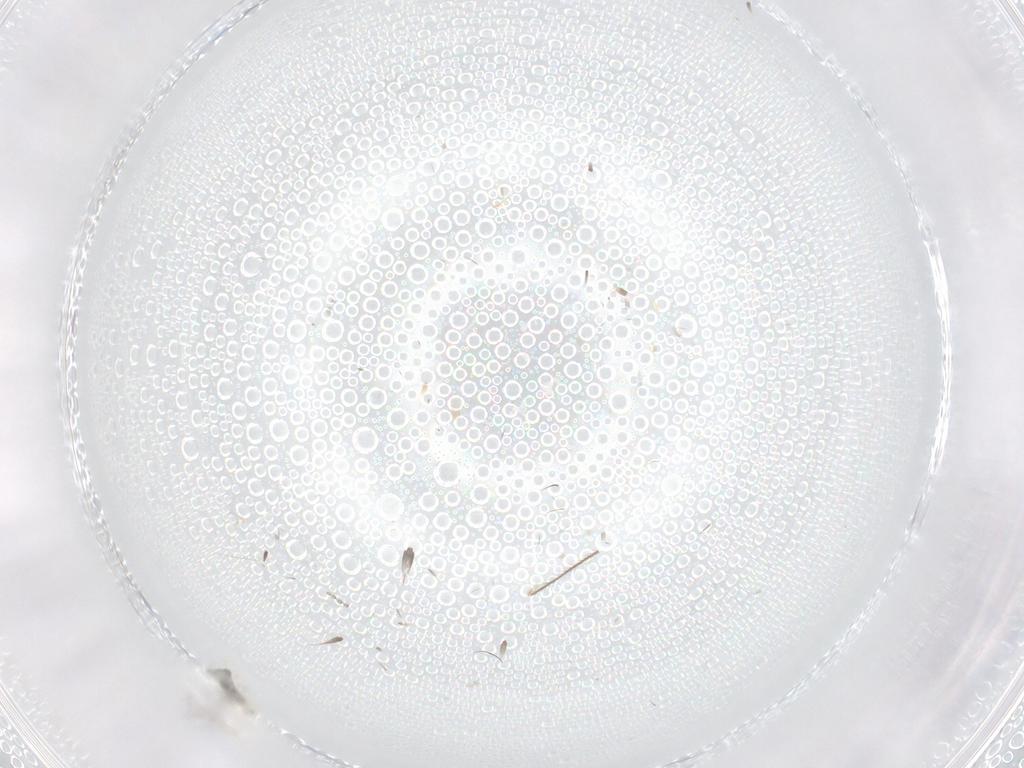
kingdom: Animalia
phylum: Arthropoda
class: Insecta
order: Diptera
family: Cecidomyiidae
